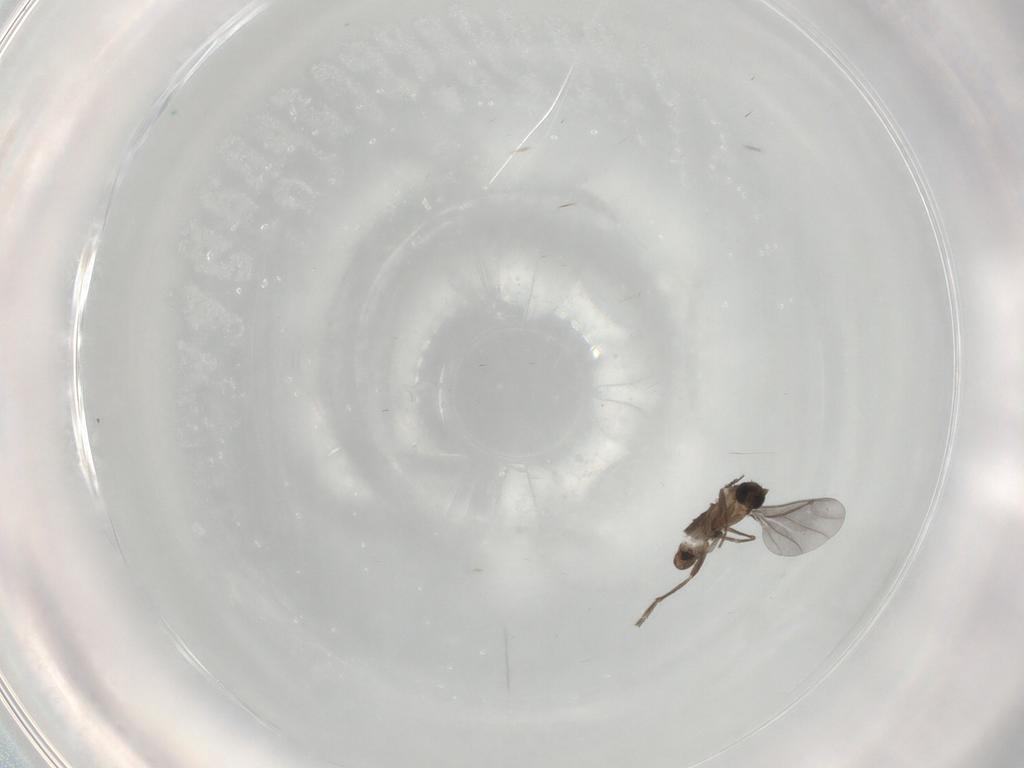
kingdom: Animalia
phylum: Arthropoda
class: Insecta
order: Diptera
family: Phoridae
